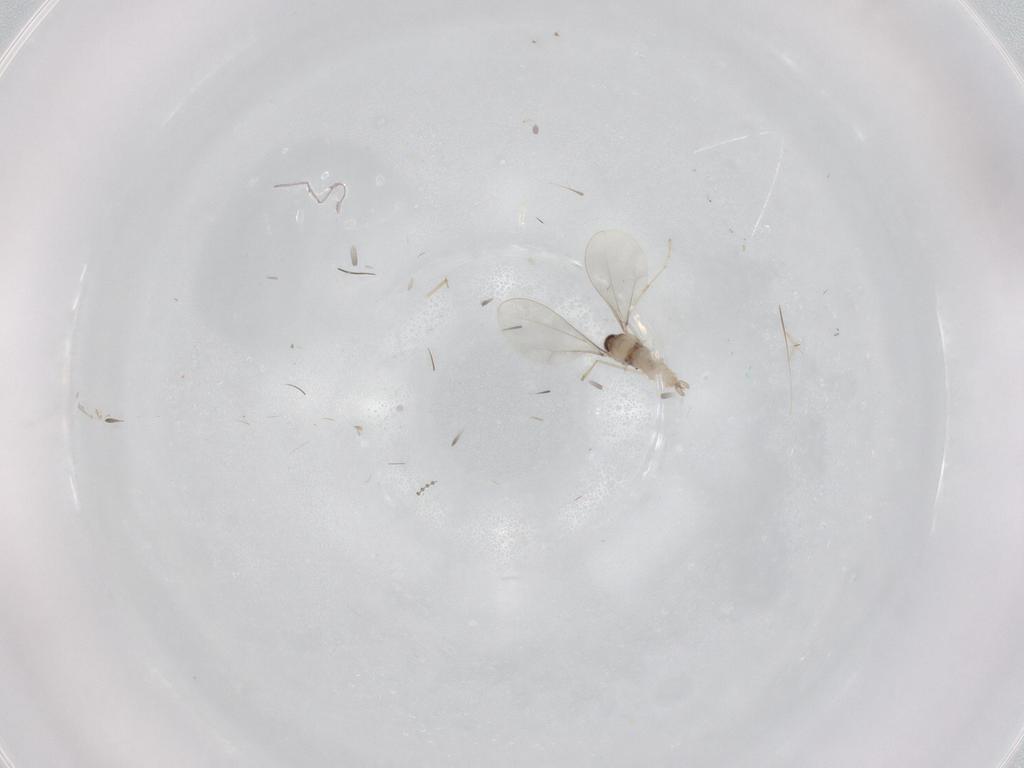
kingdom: Animalia
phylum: Arthropoda
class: Insecta
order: Diptera
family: Cecidomyiidae
